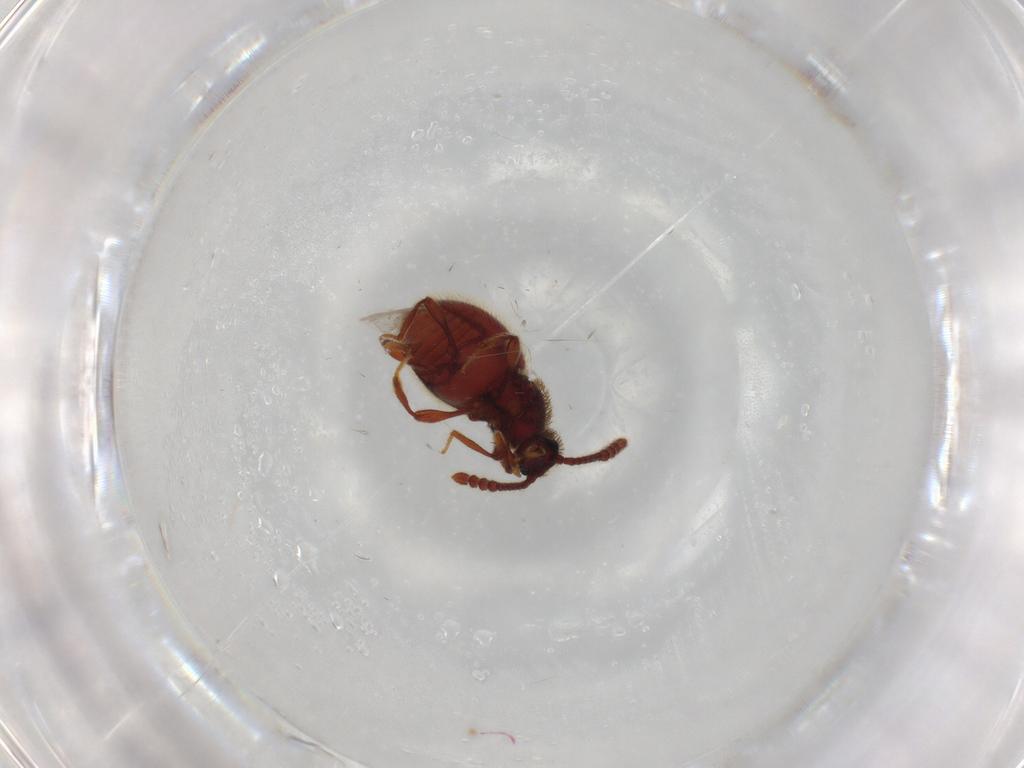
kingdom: Animalia
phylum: Arthropoda
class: Insecta
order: Coleoptera
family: Staphylinidae
